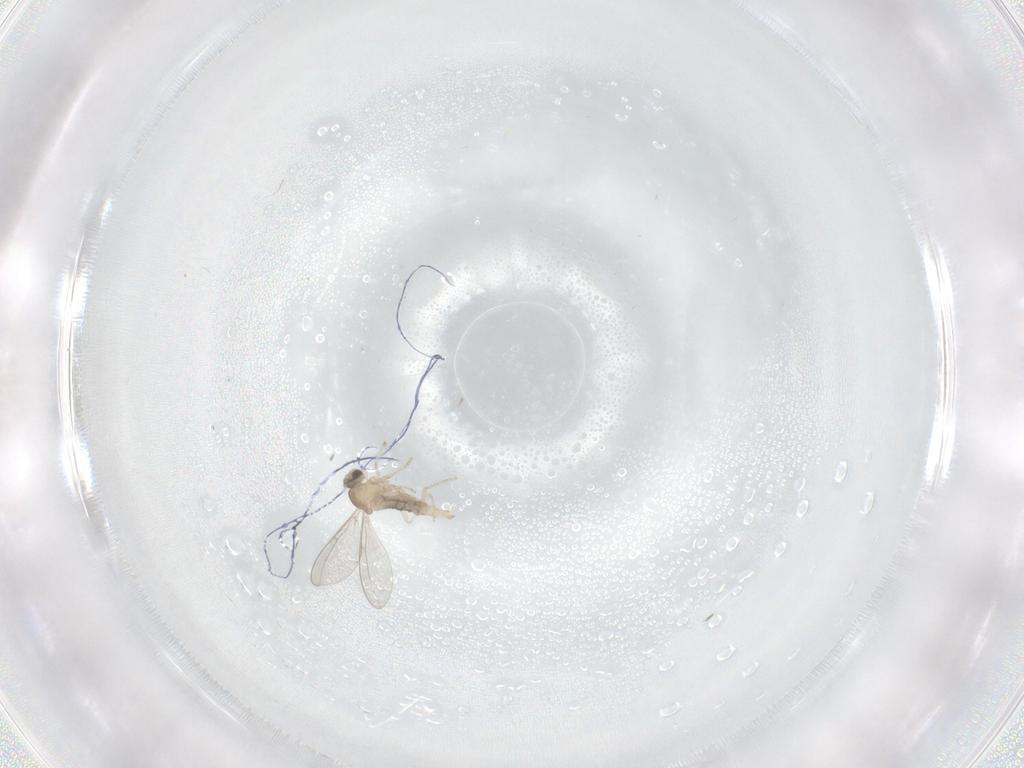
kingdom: Animalia
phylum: Arthropoda
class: Insecta
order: Diptera
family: Cecidomyiidae
